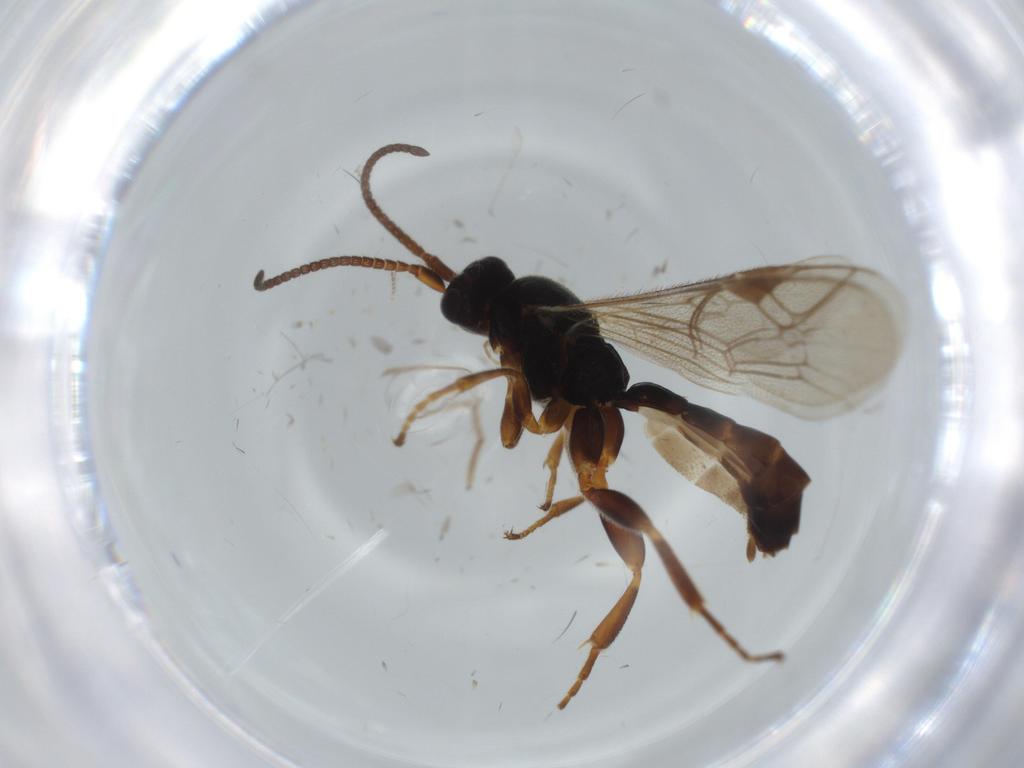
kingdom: Animalia
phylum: Arthropoda
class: Insecta
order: Hymenoptera
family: Ichneumonidae
